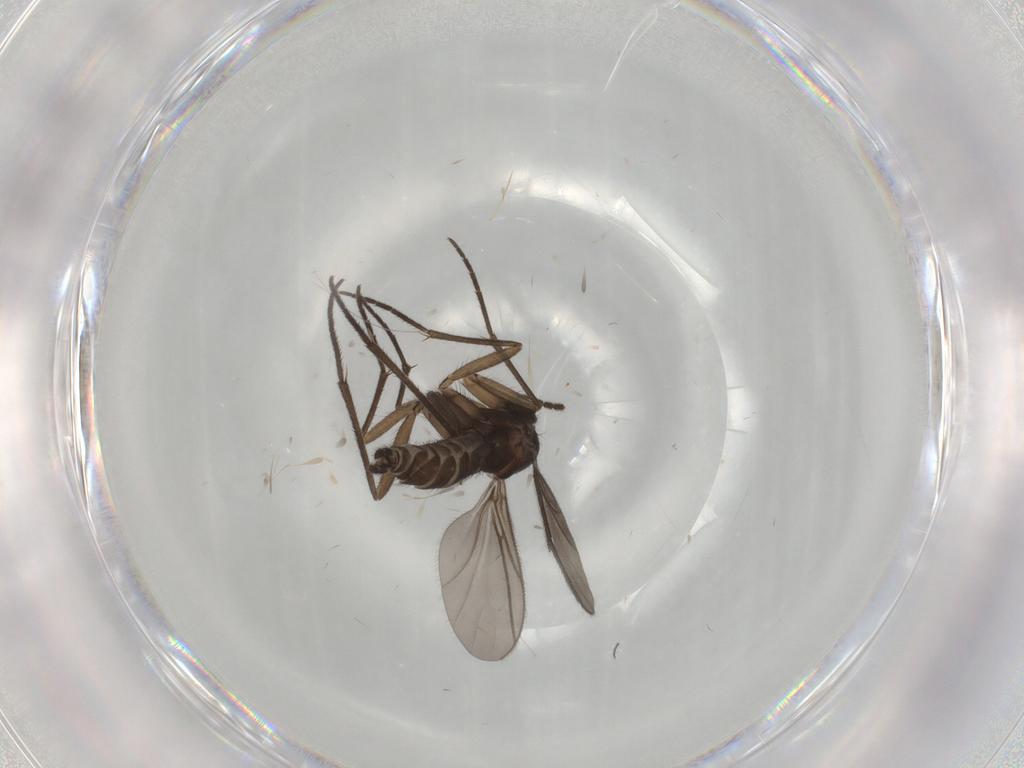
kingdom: Animalia
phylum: Arthropoda
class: Insecta
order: Diptera
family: Sciaridae
